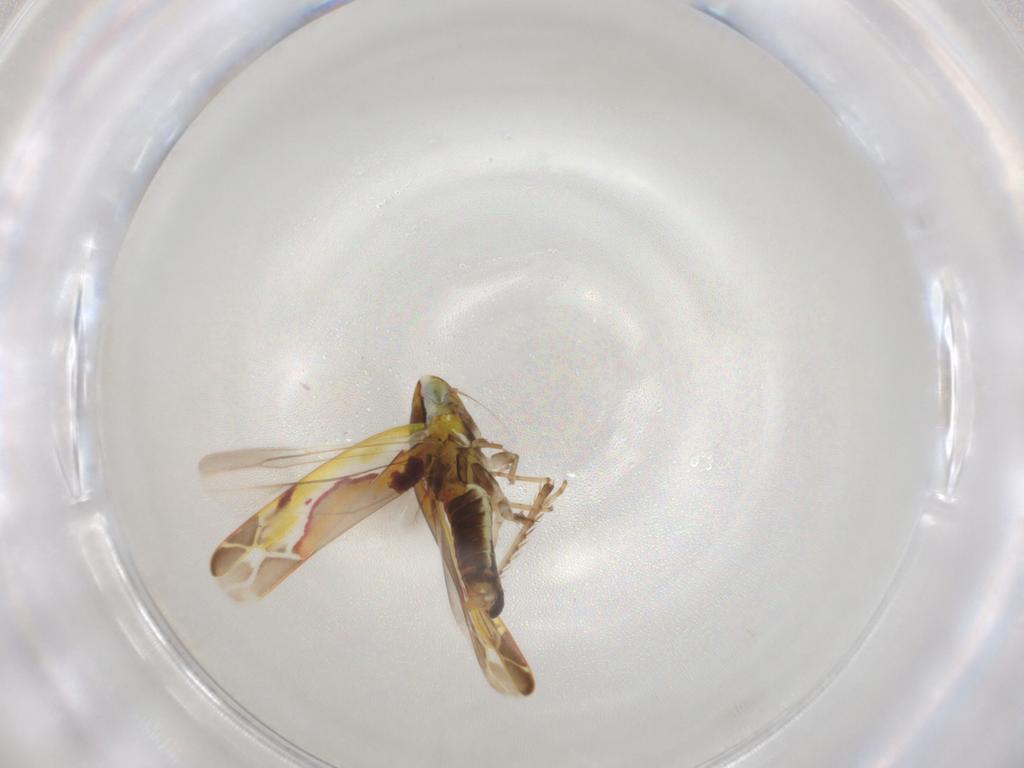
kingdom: Animalia
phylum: Arthropoda
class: Insecta
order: Hemiptera
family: Cicadellidae
